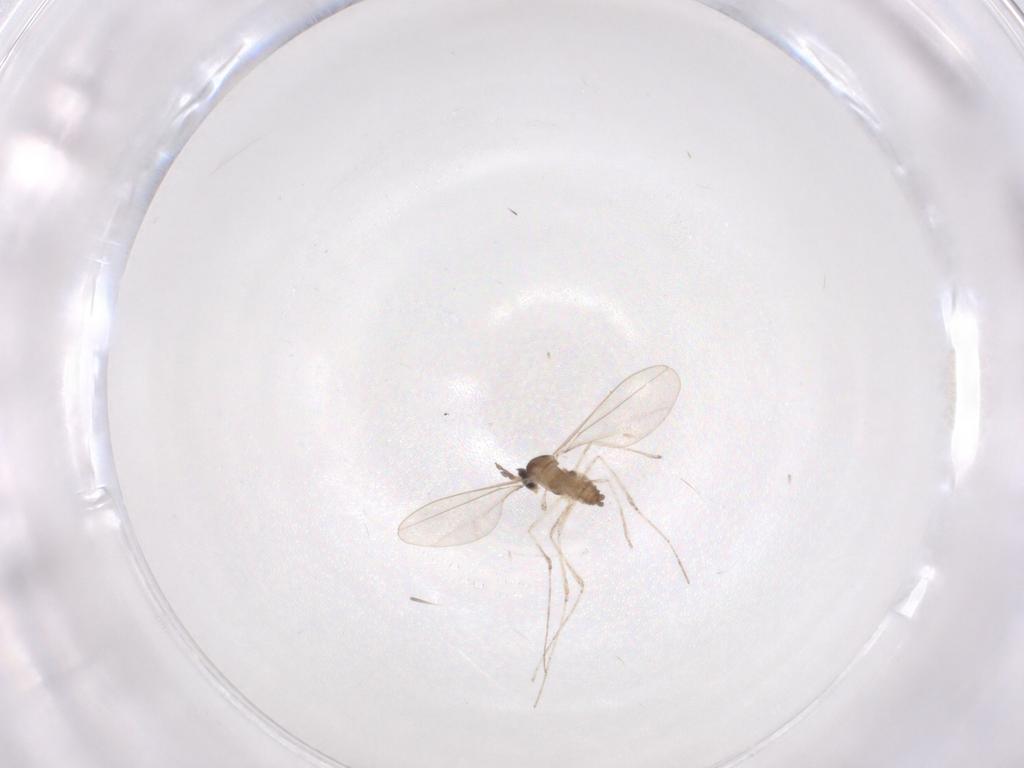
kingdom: Animalia
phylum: Arthropoda
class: Insecta
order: Diptera
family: Cecidomyiidae
